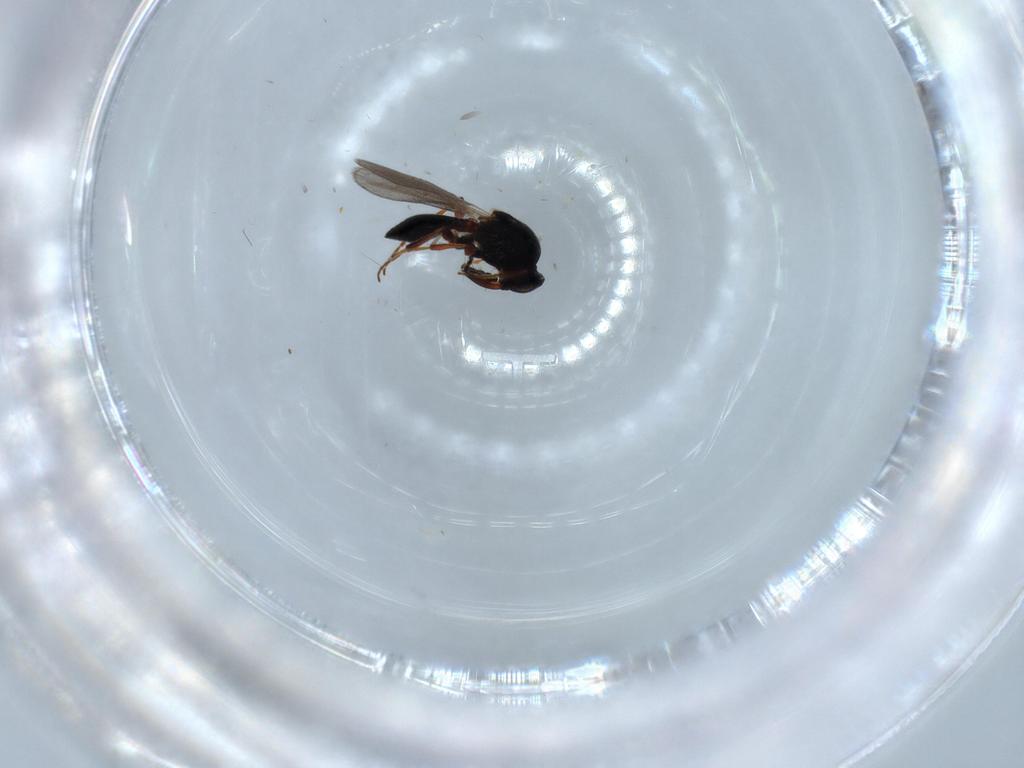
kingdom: Animalia
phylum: Arthropoda
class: Insecta
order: Hymenoptera
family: Platygastridae
